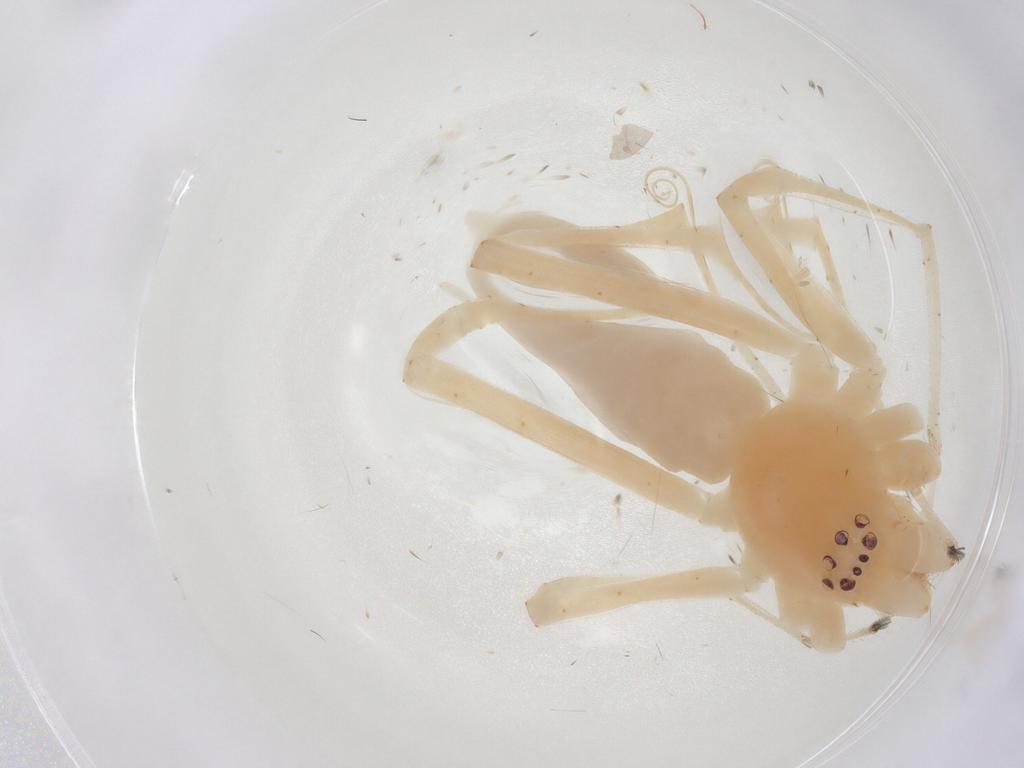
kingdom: Animalia
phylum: Arthropoda
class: Arachnida
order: Araneae
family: Anyphaenidae
